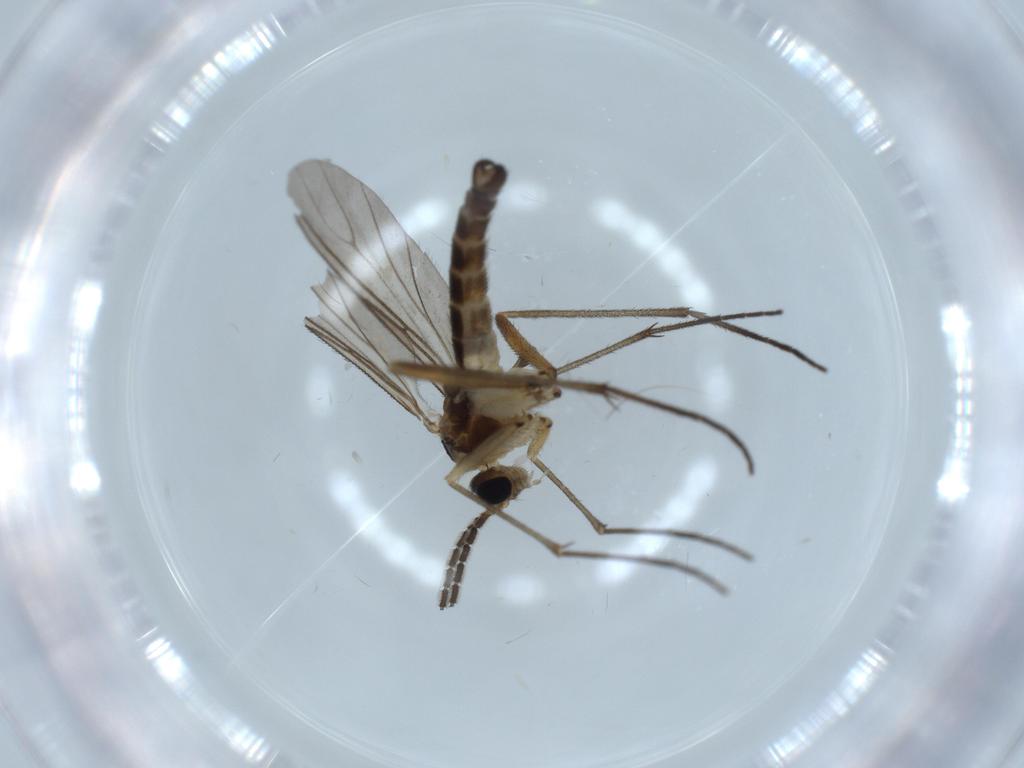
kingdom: Animalia
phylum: Arthropoda
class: Insecta
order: Diptera
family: Sciaridae
